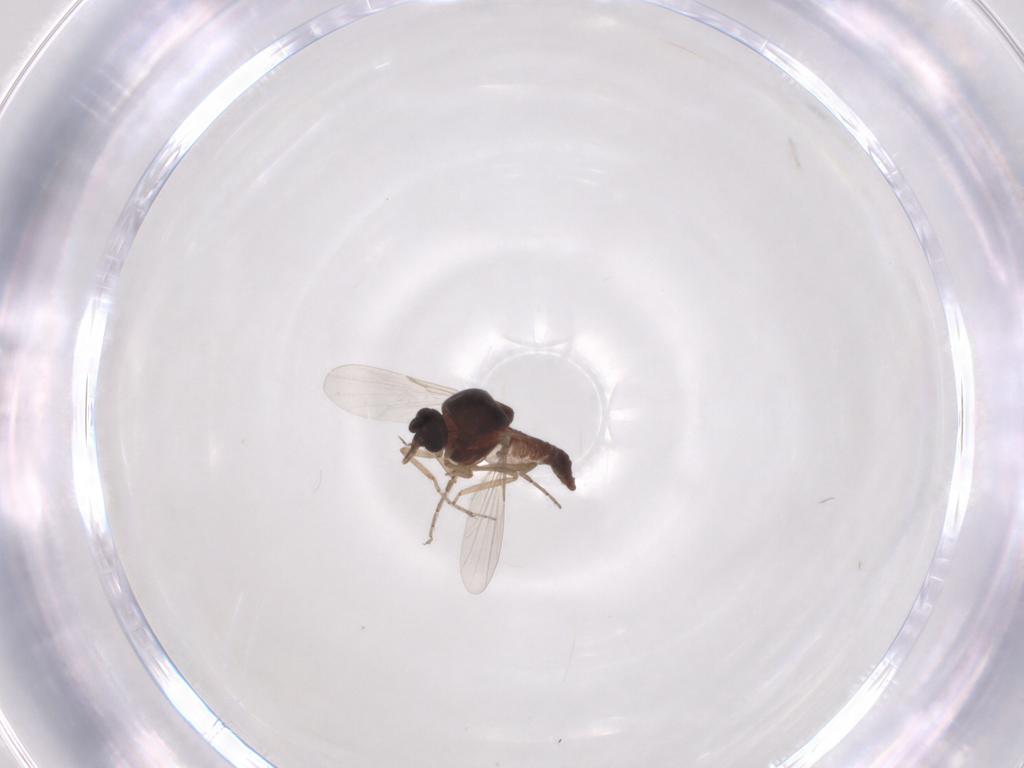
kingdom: Animalia
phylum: Arthropoda
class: Insecta
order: Diptera
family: Ceratopogonidae
